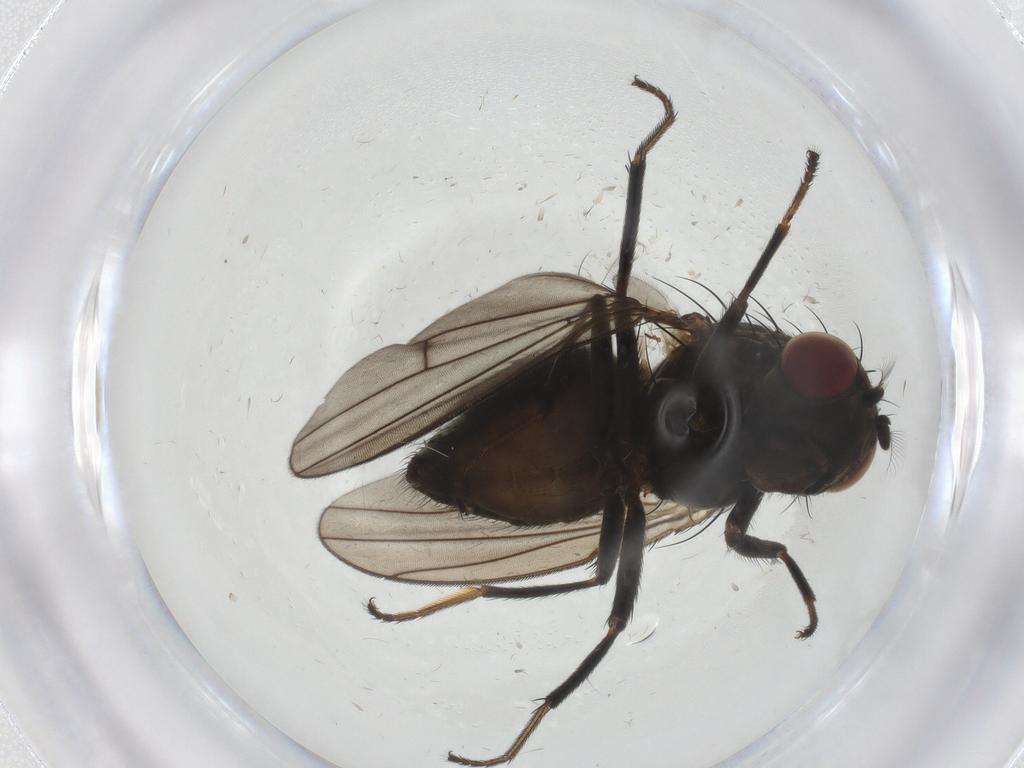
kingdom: Animalia
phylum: Arthropoda
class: Insecta
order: Diptera
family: Ephydridae
